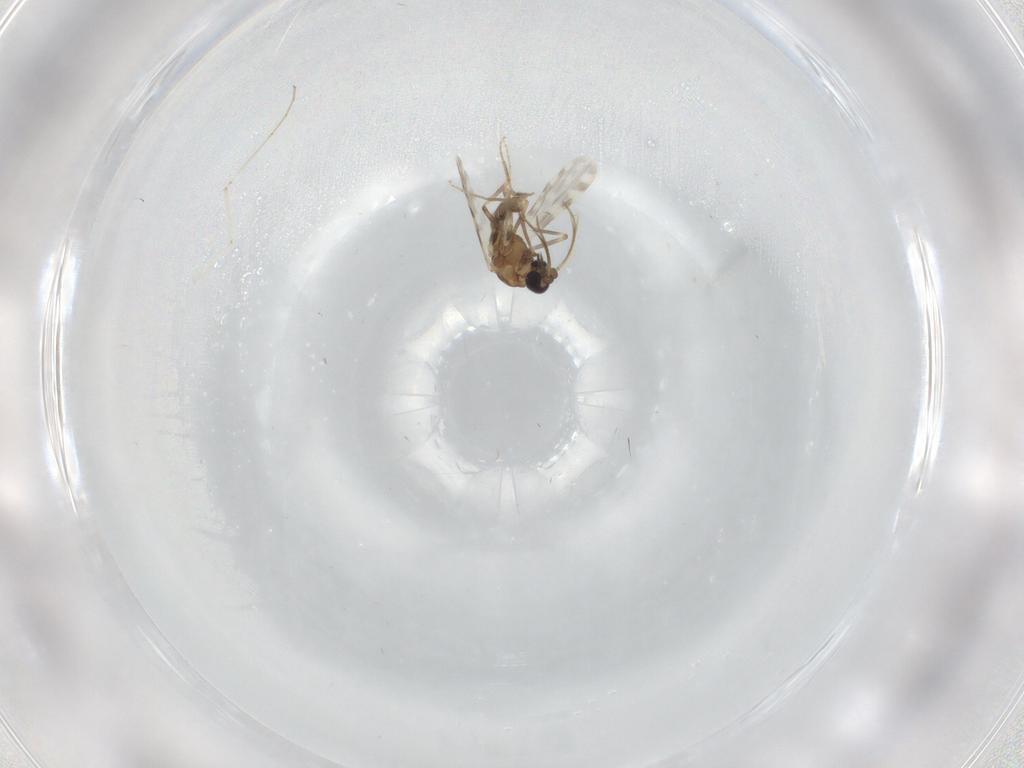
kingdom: Animalia
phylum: Arthropoda
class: Insecta
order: Diptera
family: Ceratopogonidae
